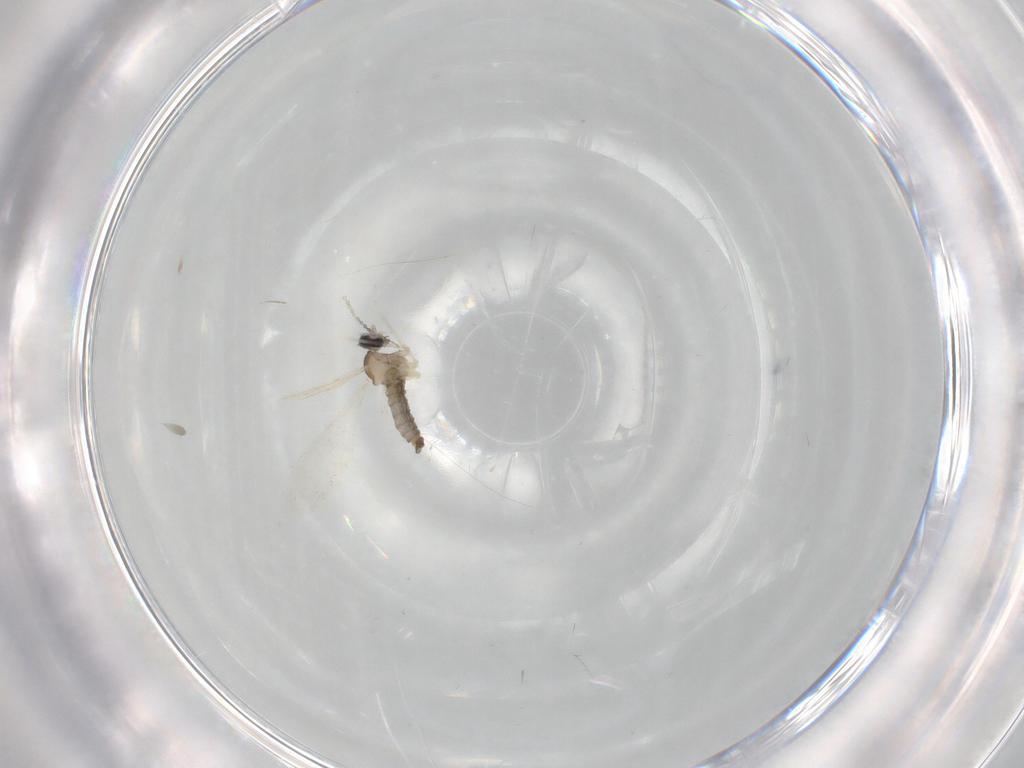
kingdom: Animalia
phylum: Arthropoda
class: Insecta
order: Diptera
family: Cecidomyiidae
